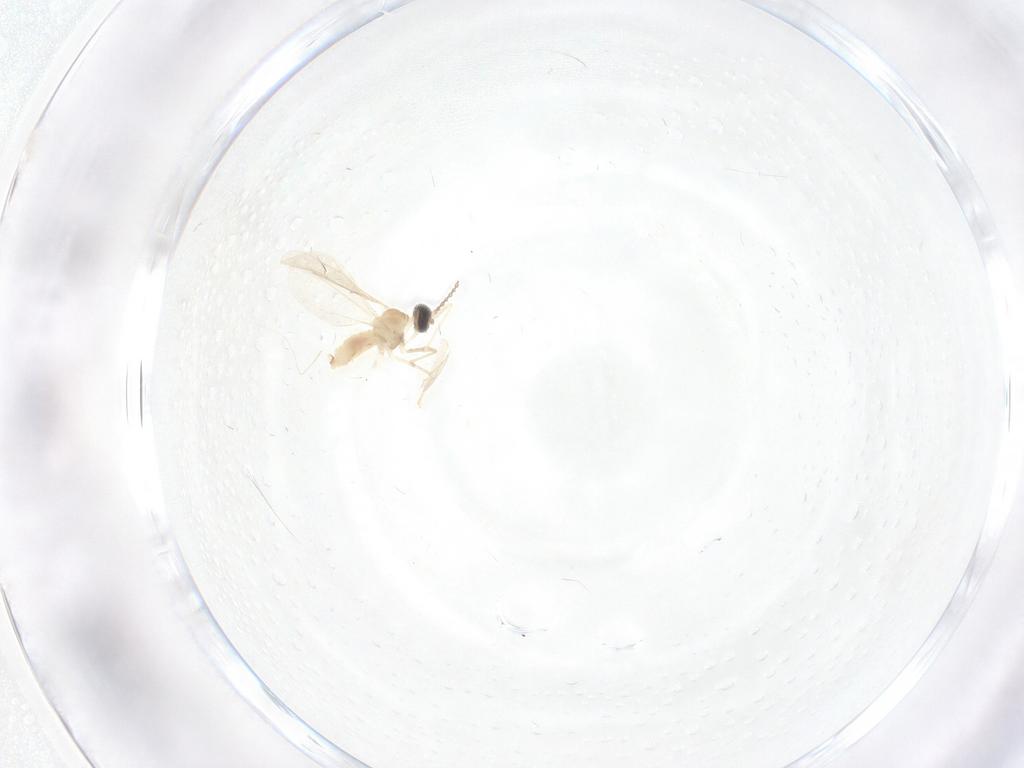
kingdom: Animalia
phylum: Arthropoda
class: Insecta
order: Diptera
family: Cecidomyiidae
